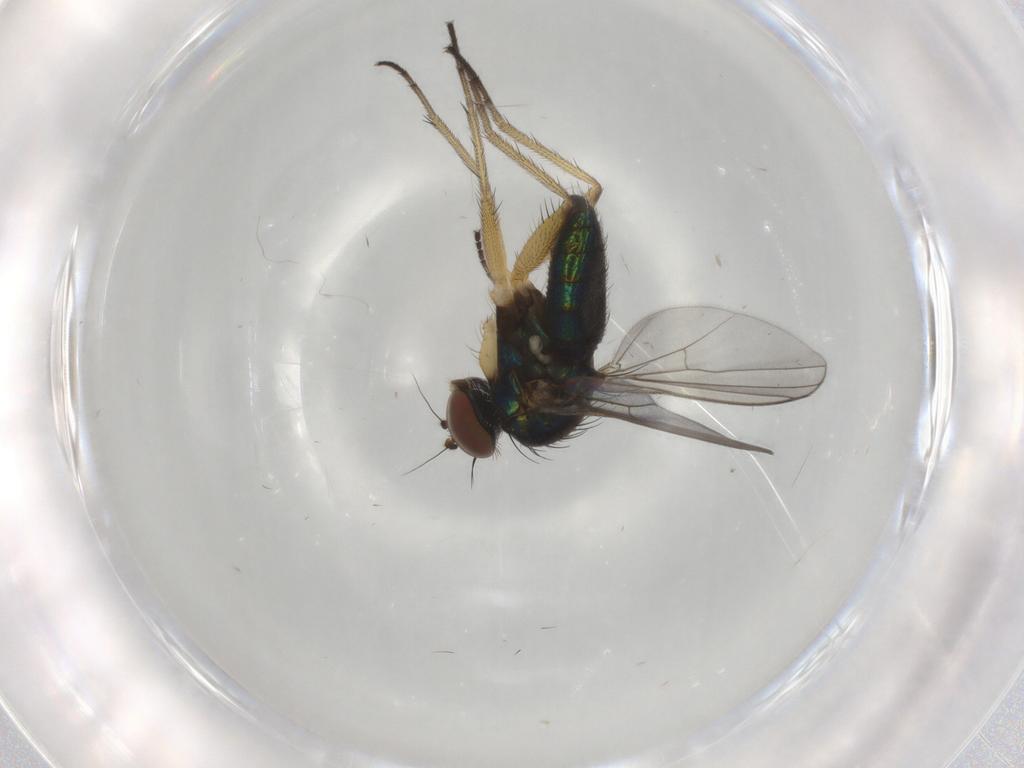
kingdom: Animalia
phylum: Arthropoda
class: Insecta
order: Diptera
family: Dolichopodidae
